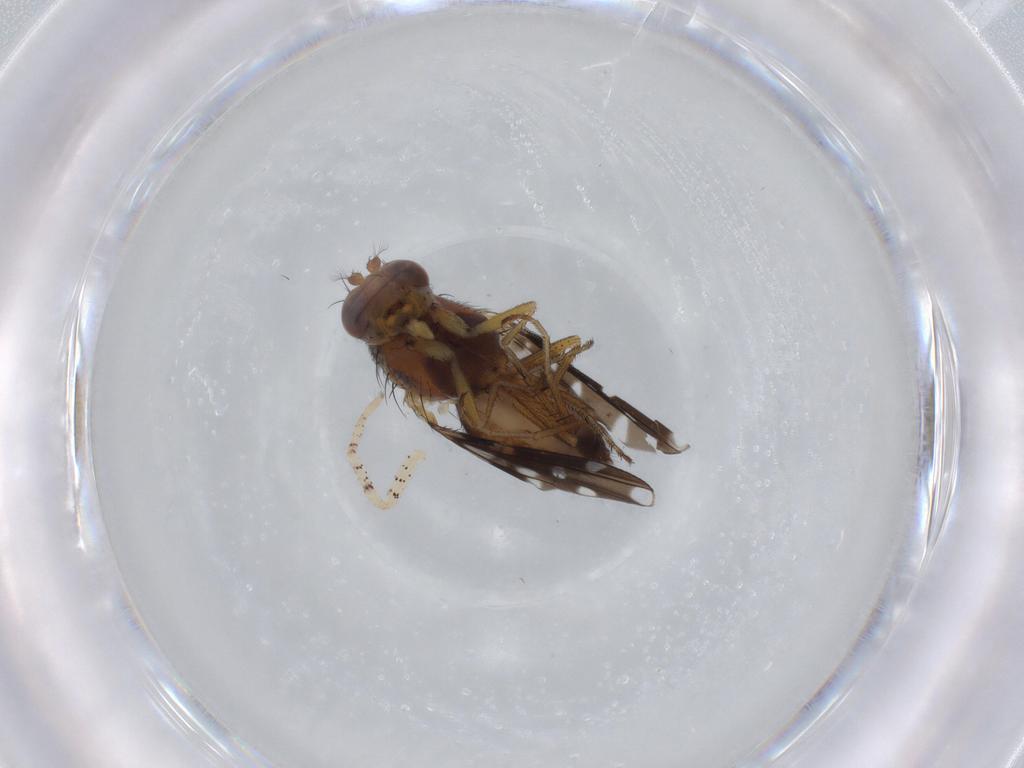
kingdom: Animalia
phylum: Arthropoda
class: Insecta
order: Diptera
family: Ephydridae
